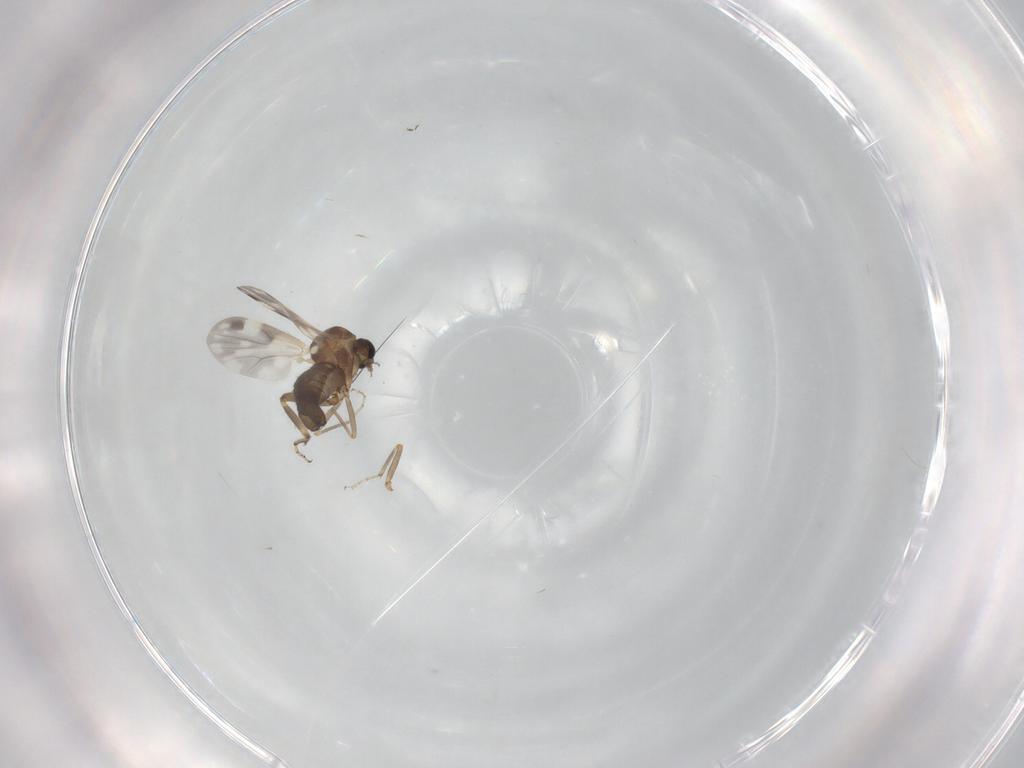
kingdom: Animalia
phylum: Arthropoda
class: Insecta
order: Diptera
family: Ceratopogonidae
